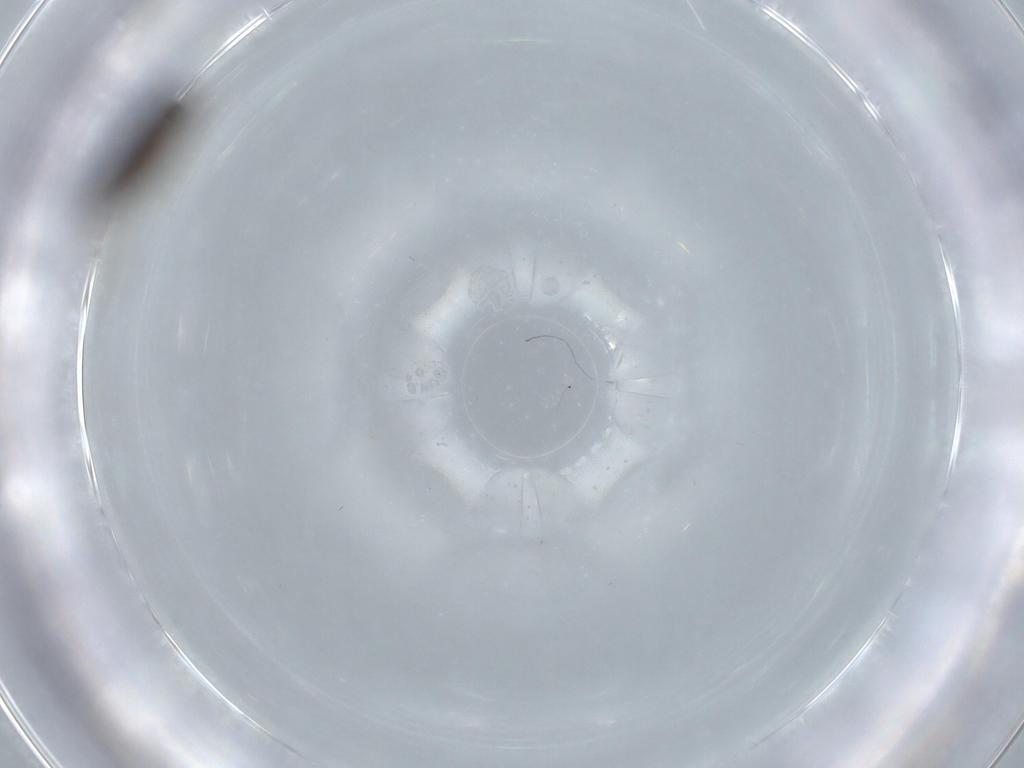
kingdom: Animalia
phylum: Arthropoda
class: Insecta
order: Diptera
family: Phoridae
